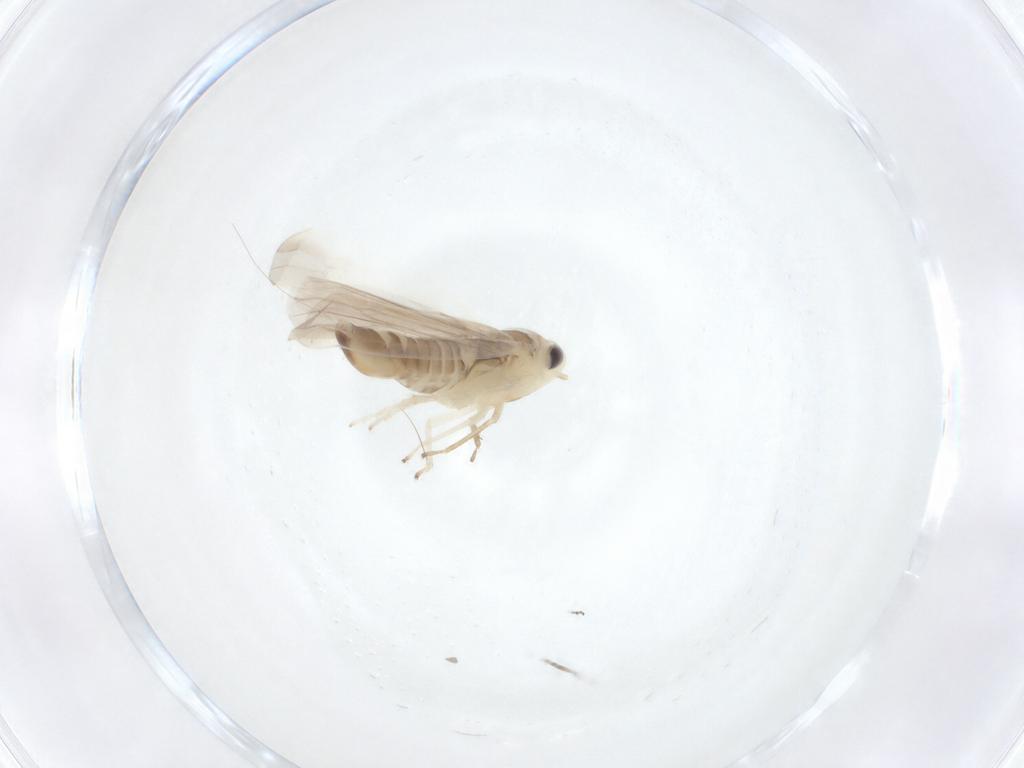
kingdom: Animalia
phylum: Arthropoda
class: Insecta
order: Hemiptera
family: Cicadellidae
